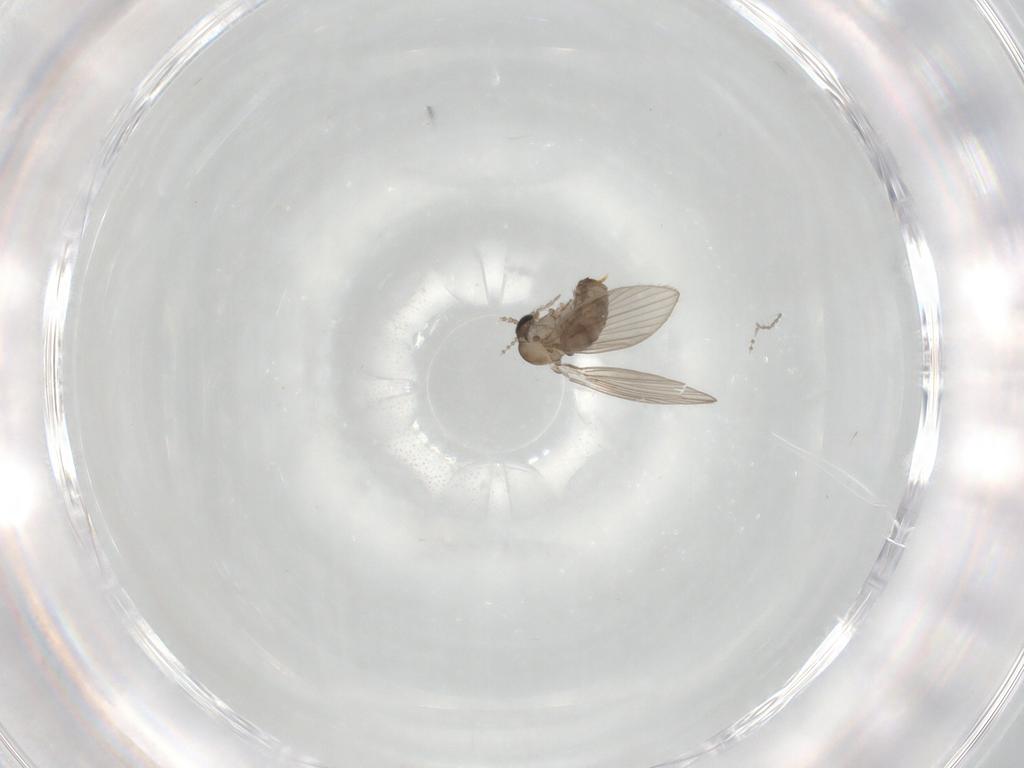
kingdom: Animalia
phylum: Arthropoda
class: Insecta
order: Diptera
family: Psychodidae
